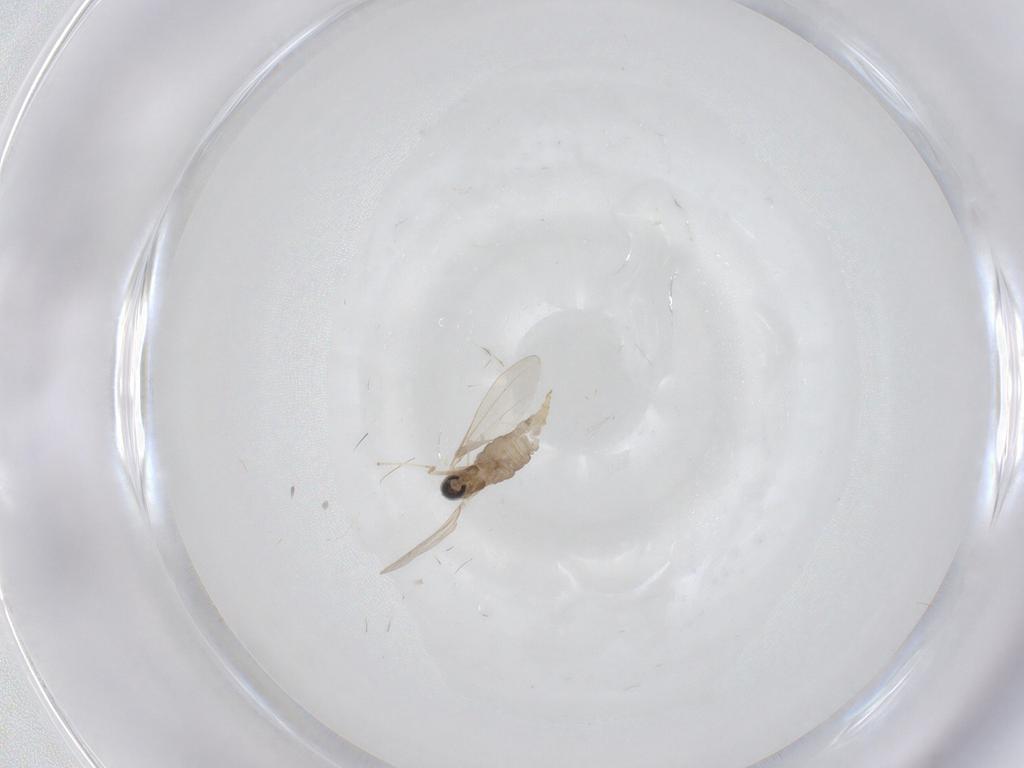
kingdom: Animalia
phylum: Arthropoda
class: Insecta
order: Diptera
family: Cecidomyiidae
